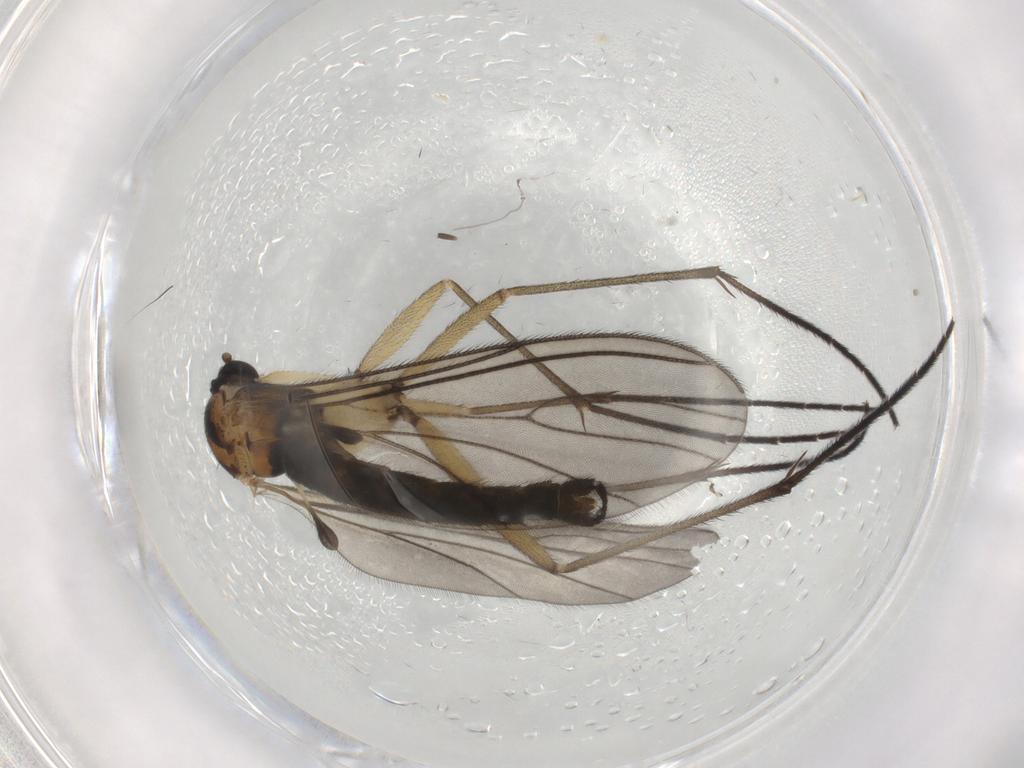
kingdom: Animalia
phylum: Arthropoda
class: Insecta
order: Diptera
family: Sciaridae
